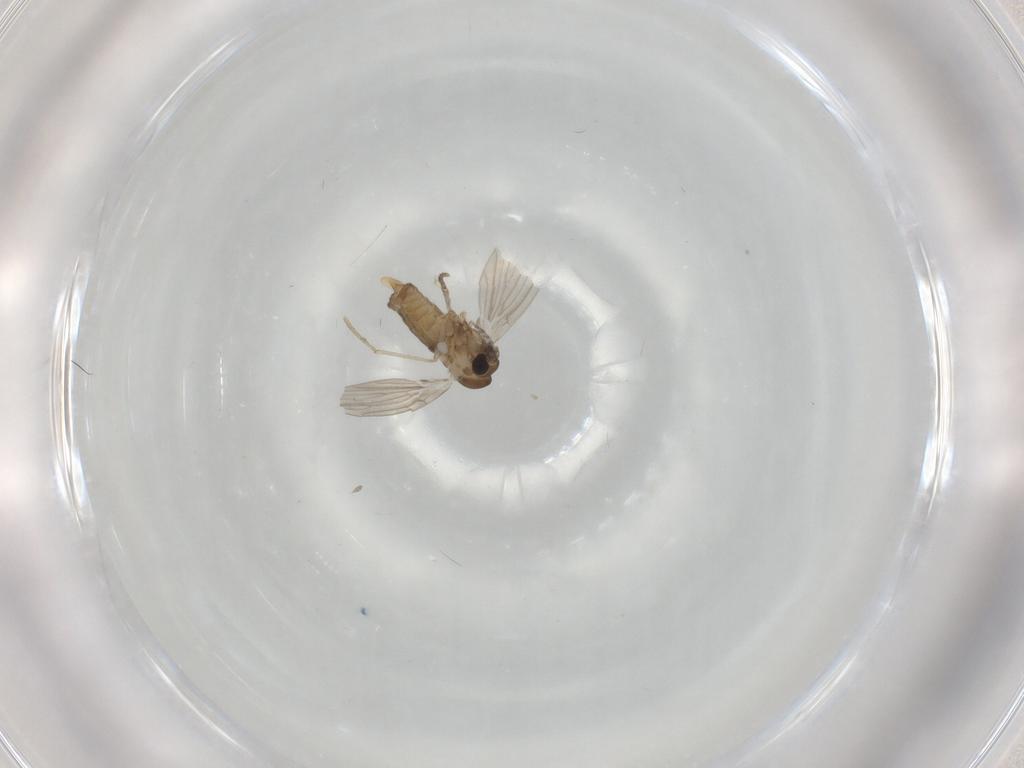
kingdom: Animalia
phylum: Arthropoda
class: Insecta
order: Diptera
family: Cecidomyiidae
